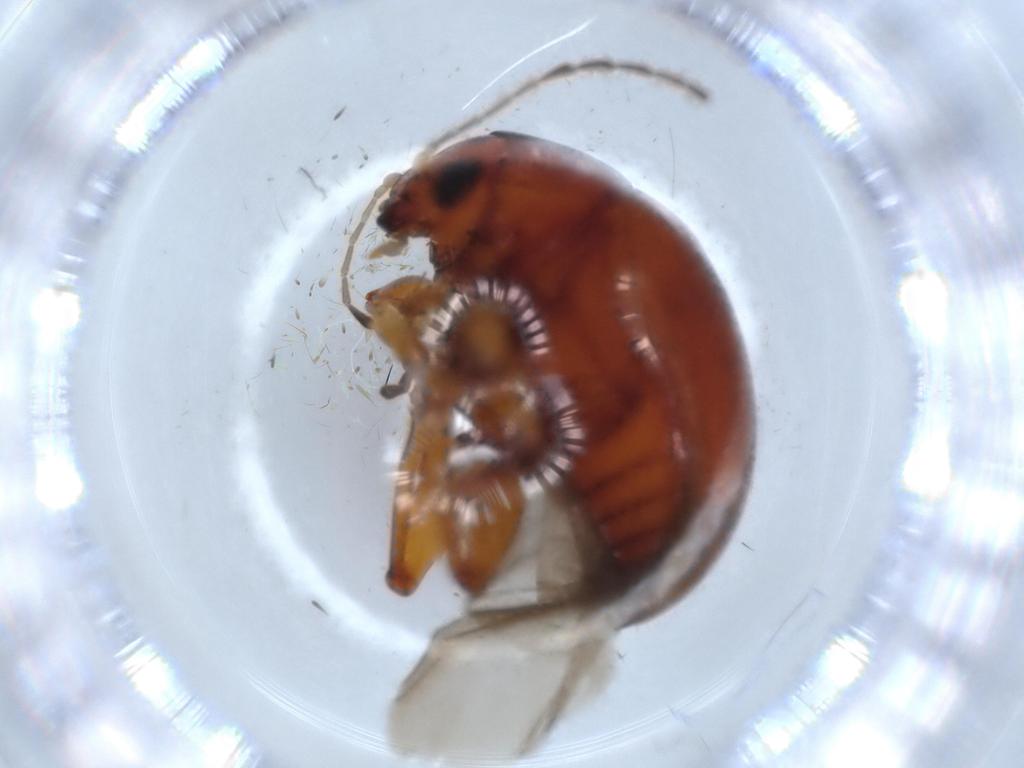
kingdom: Animalia
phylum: Arthropoda
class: Insecta
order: Coleoptera
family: Chrysomelidae
